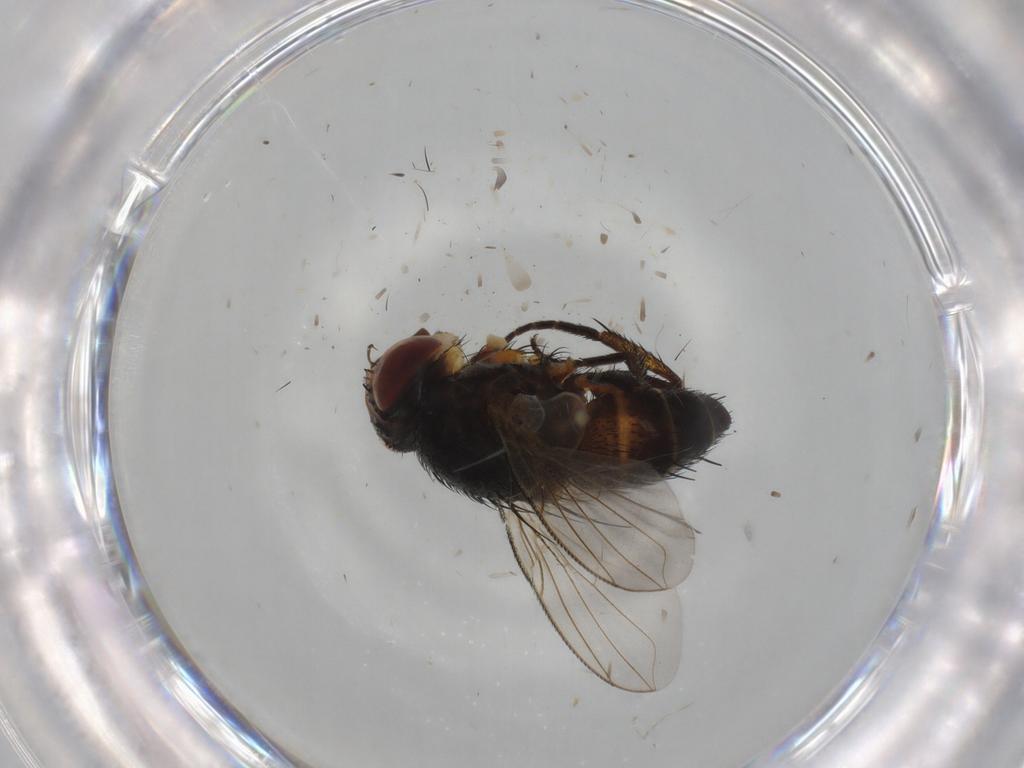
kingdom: Animalia
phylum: Arthropoda
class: Insecta
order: Diptera
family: Tachinidae
